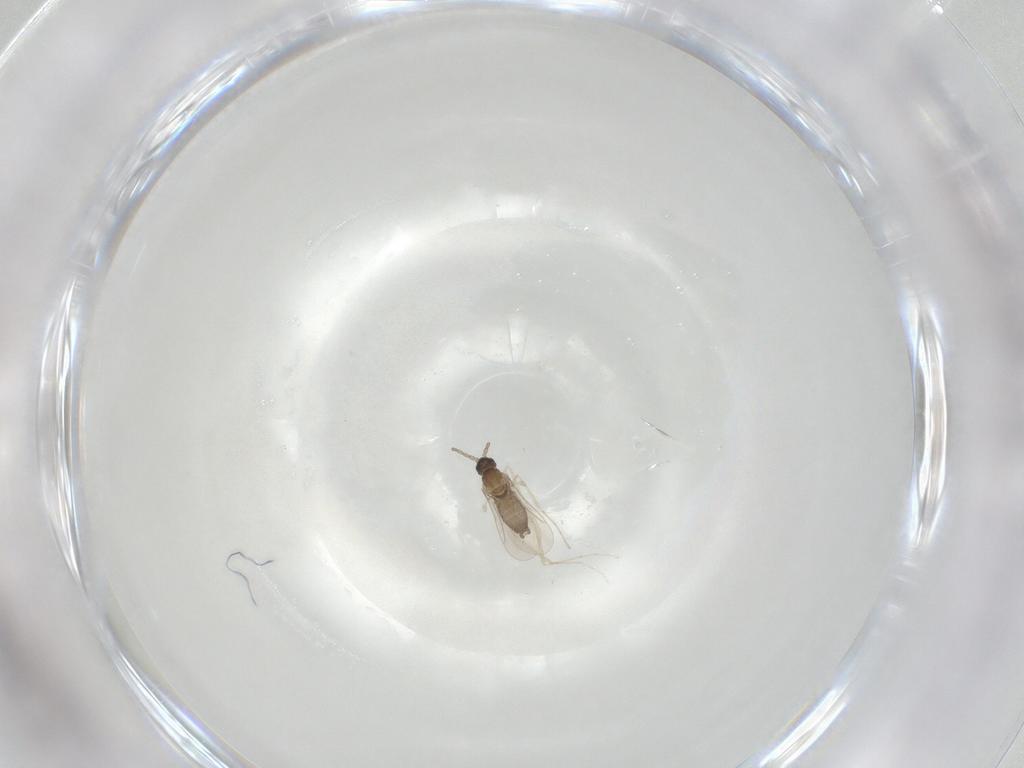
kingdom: Animalia
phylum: Arthropoda
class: Insecta
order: Diptera
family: Cecidomyiidae
